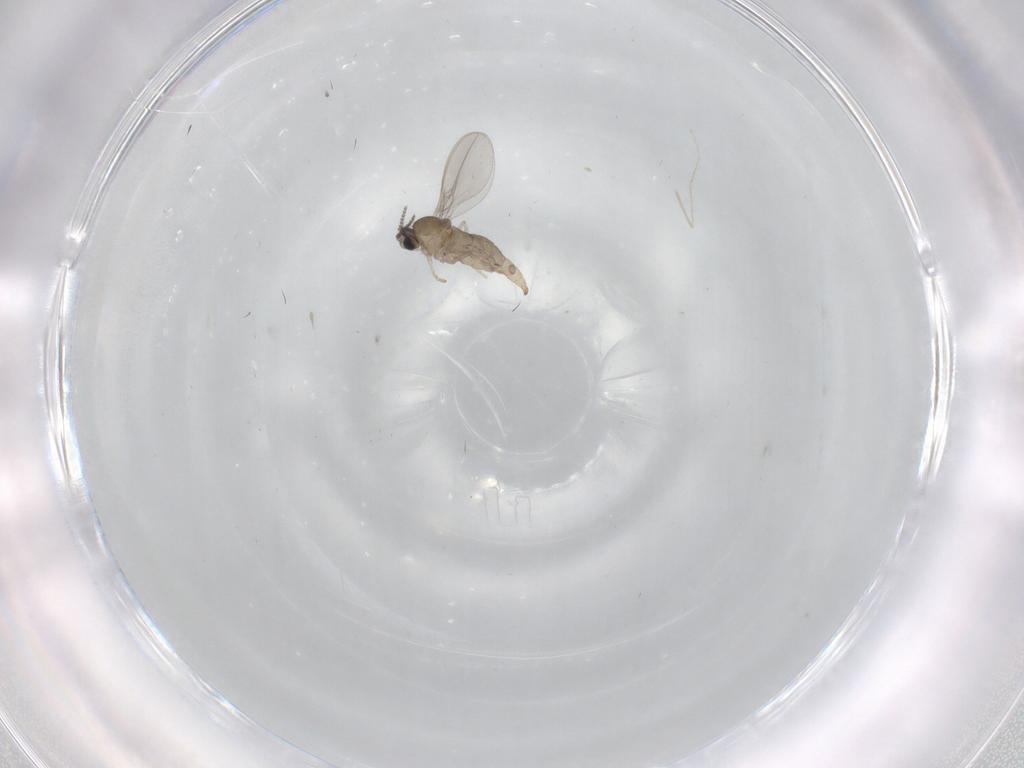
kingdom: Animalia
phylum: Arthropoda
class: Insecta
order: Diptera
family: Cecidomyiidae
